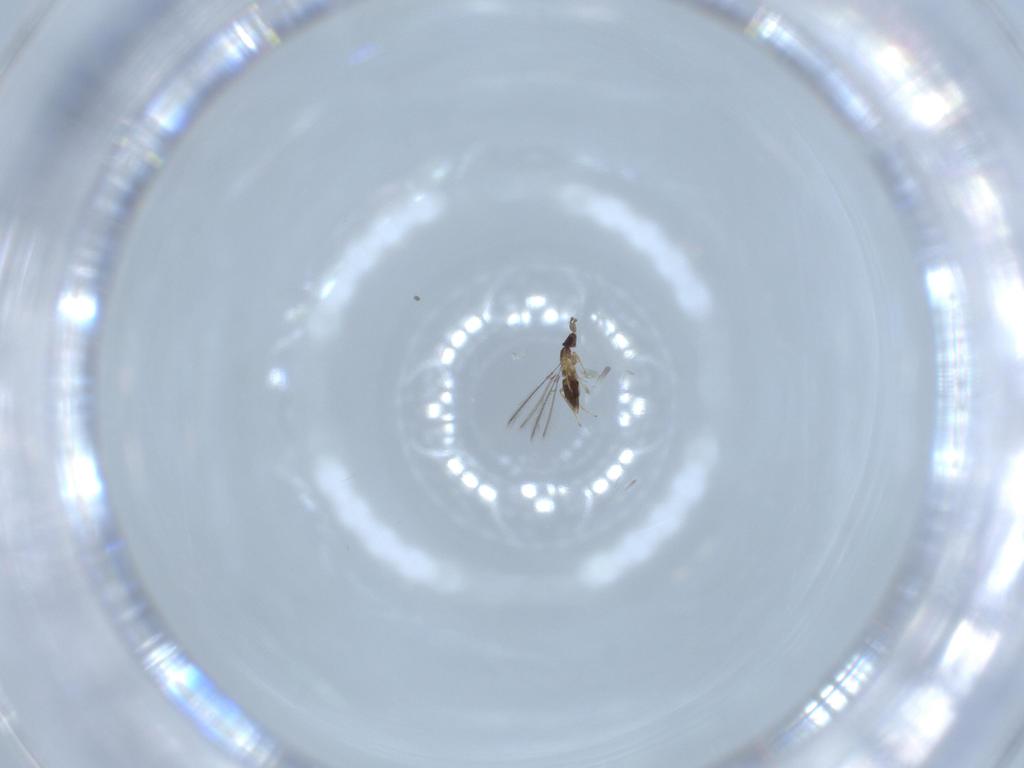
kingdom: Animalia
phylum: Arthropoda
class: Insecta
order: Hymenoptera
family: Mymaridae
